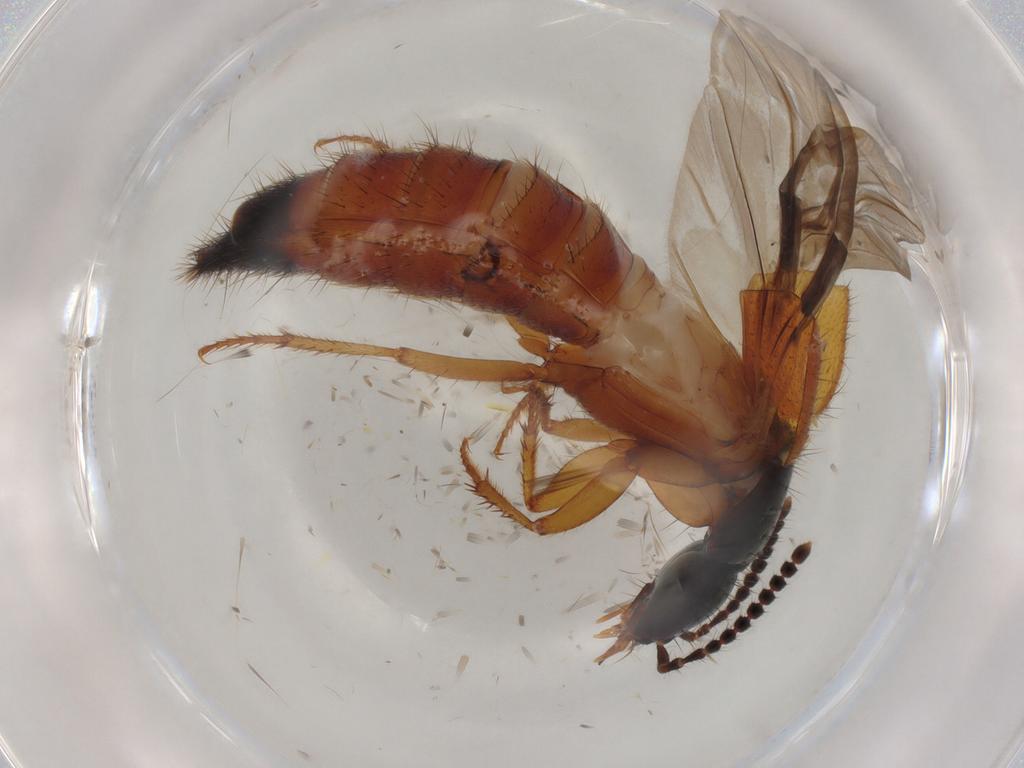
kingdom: Animalia
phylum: Arthropoda
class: Insecta
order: Coleoptera
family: Staphylinidae
